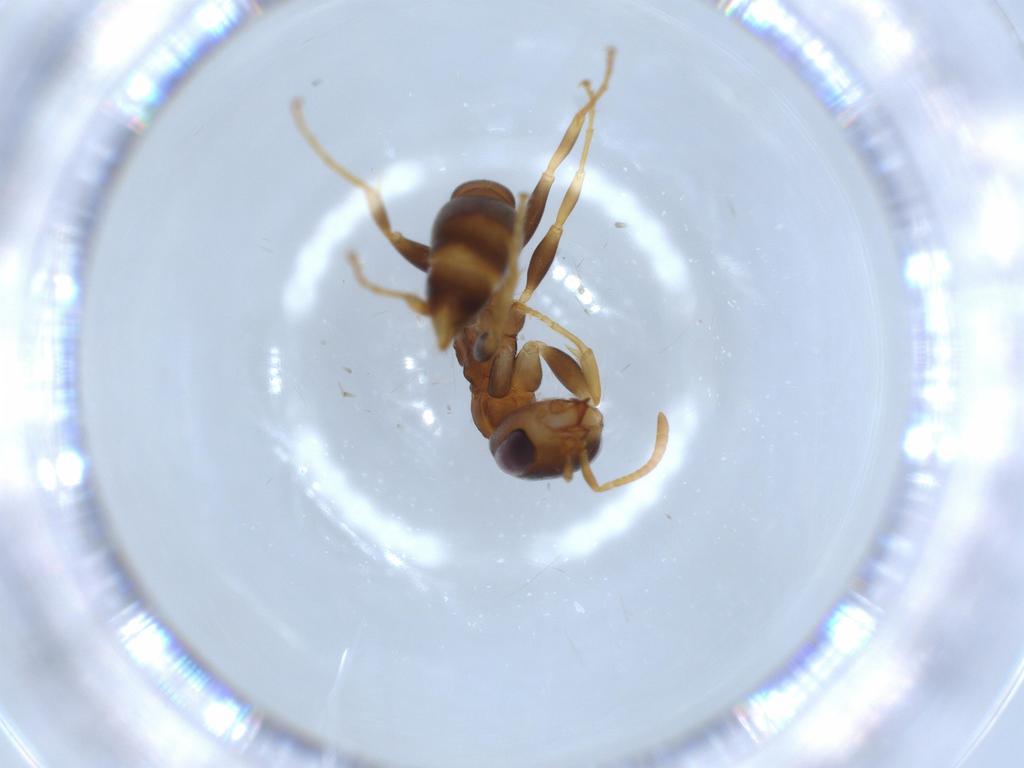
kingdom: Animalia
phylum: Arthropoda
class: Insecta
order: Hymenoptera
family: Formicidae
